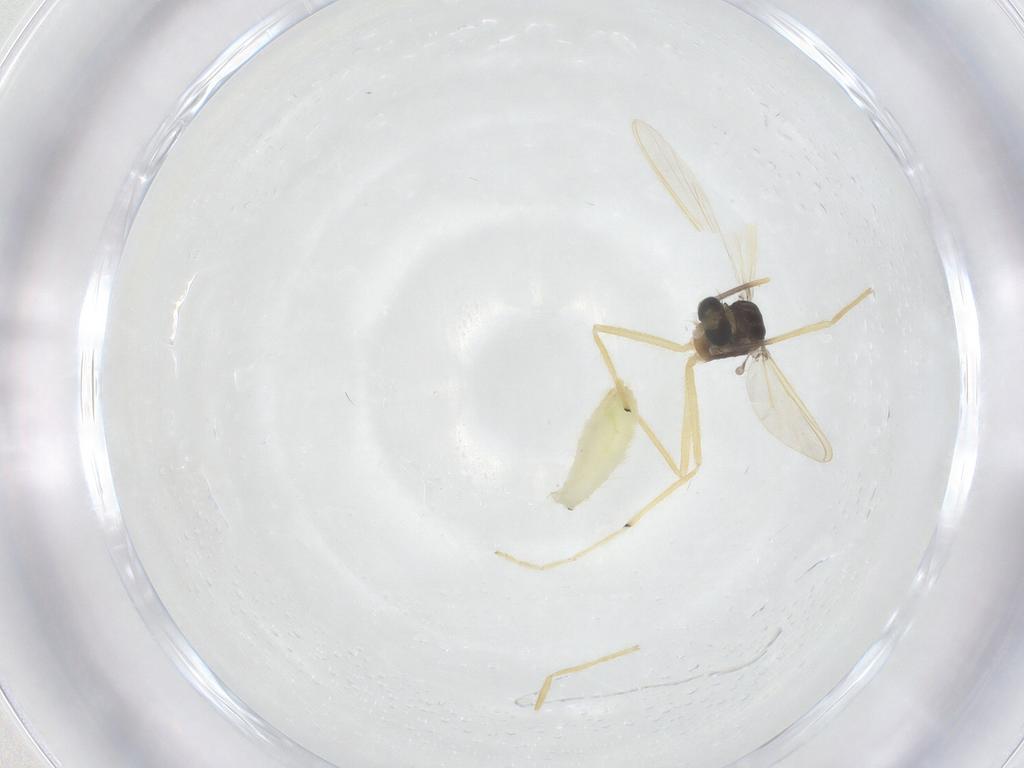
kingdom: Animalia
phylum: Arthropoda
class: Insecta
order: Diptera
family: Chironomidae
